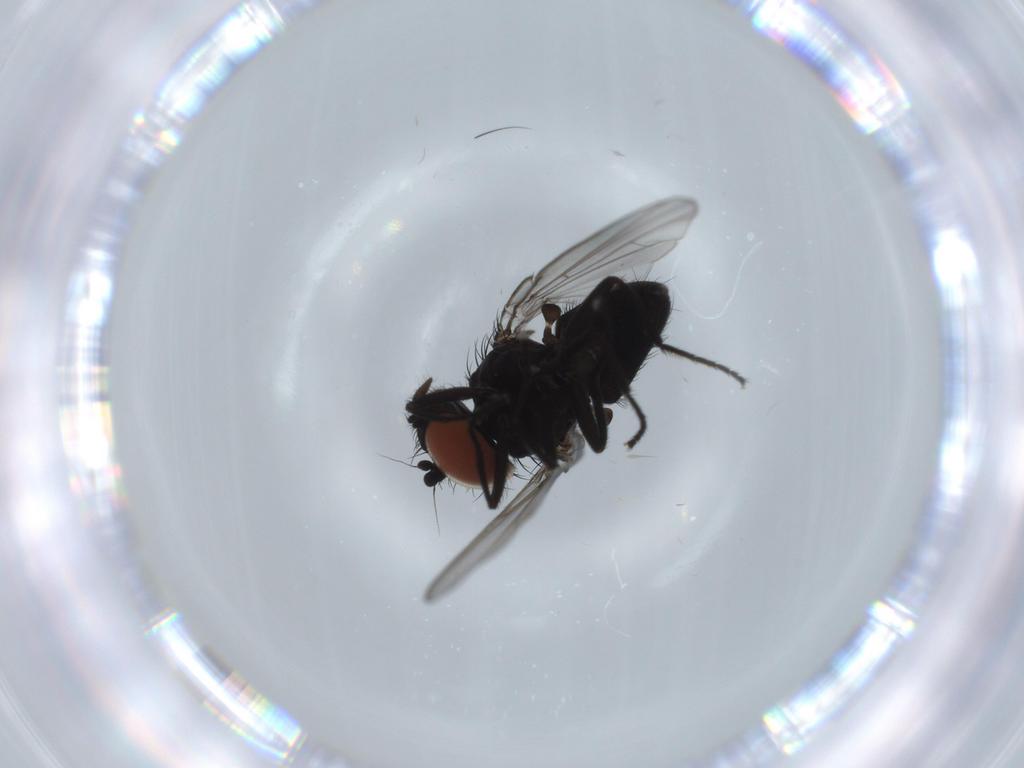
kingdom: Animalia
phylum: Arthropoda
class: Insecta
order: Diptera
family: Milichiidae
